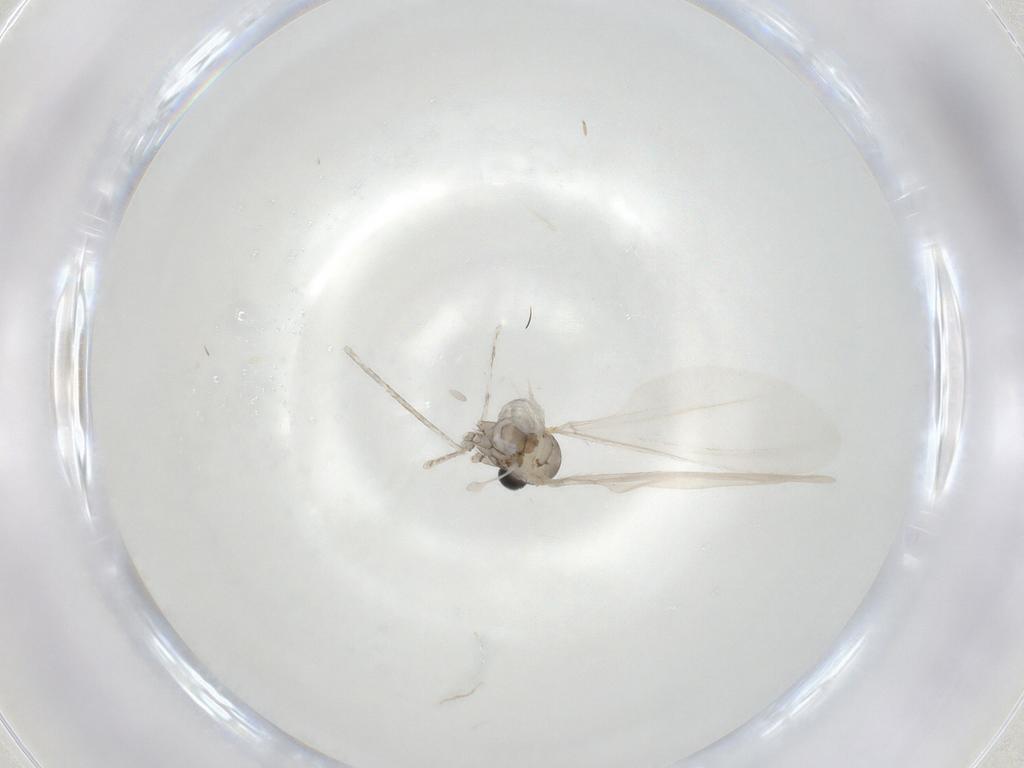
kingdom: Animalia
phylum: Arthropoda
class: Insecta
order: Diptera
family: Cecidomyiidae
